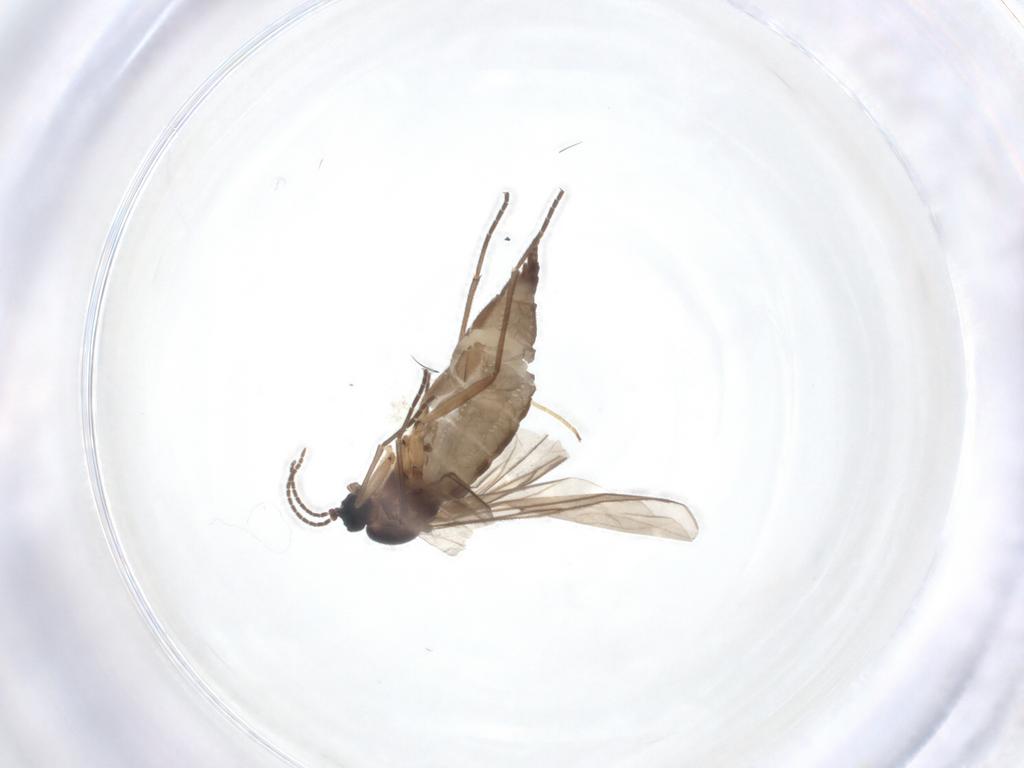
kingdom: Animalia
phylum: Arthropoda
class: Insecta
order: Diptera
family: Sciaridae
